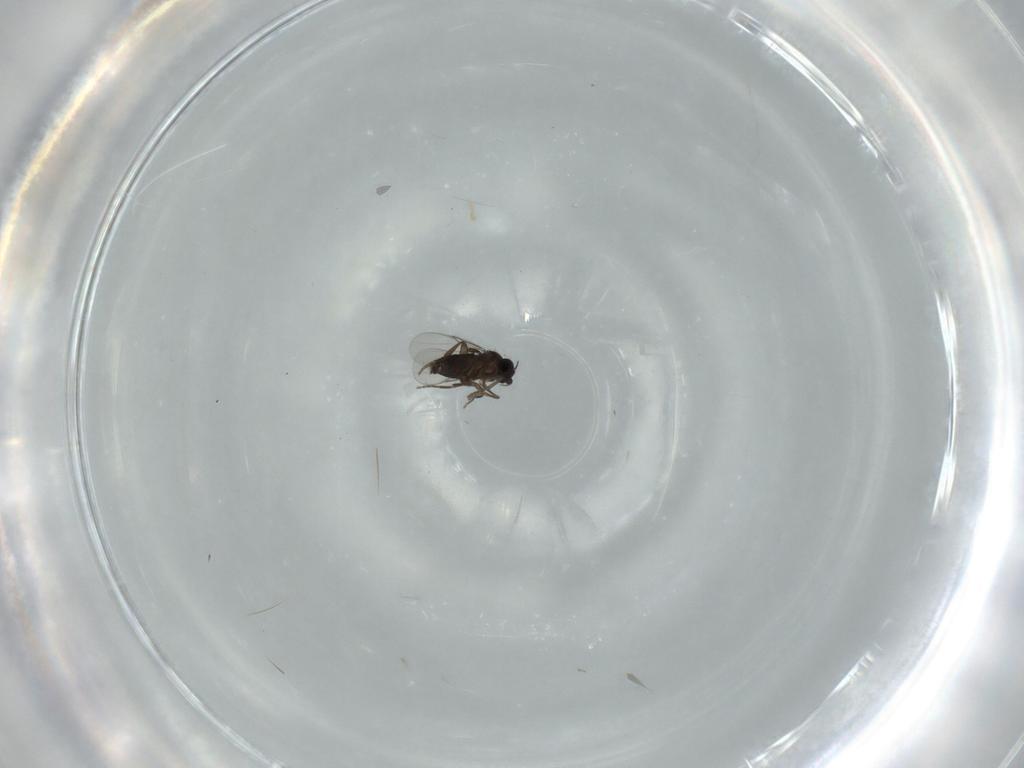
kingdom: Animalia
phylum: Arthropoda
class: Insecta
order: Diptera
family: Phoridae
